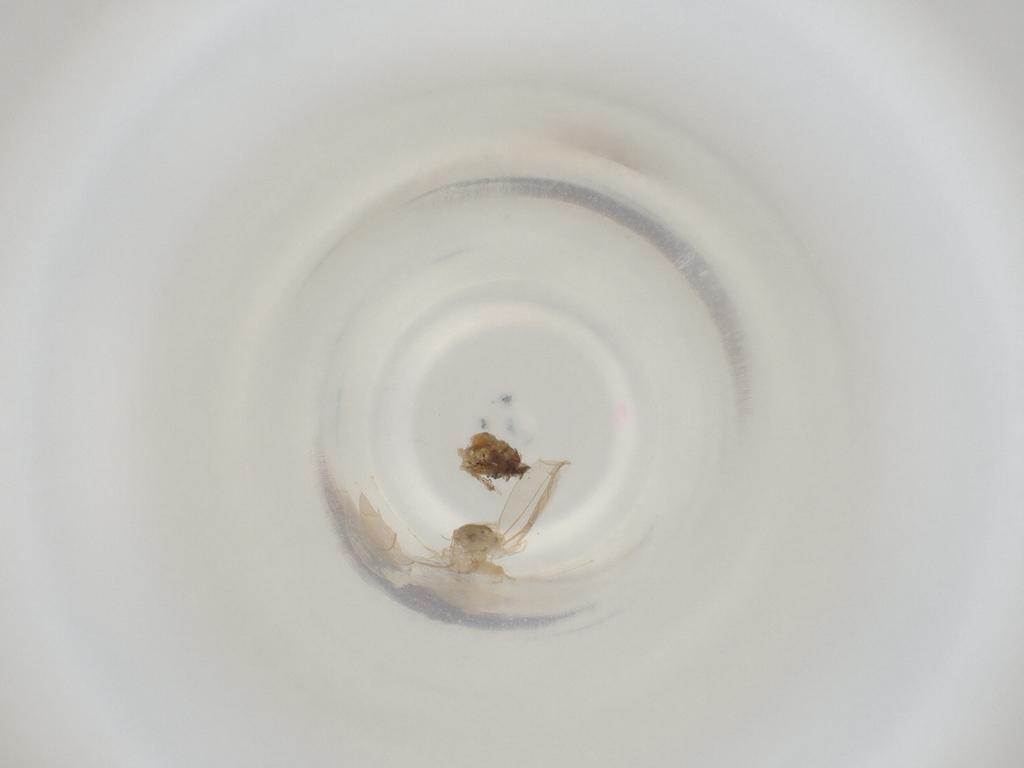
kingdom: Animalia
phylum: Arthropoda
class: Insecta
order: Diptera
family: Cecidomyiidae
